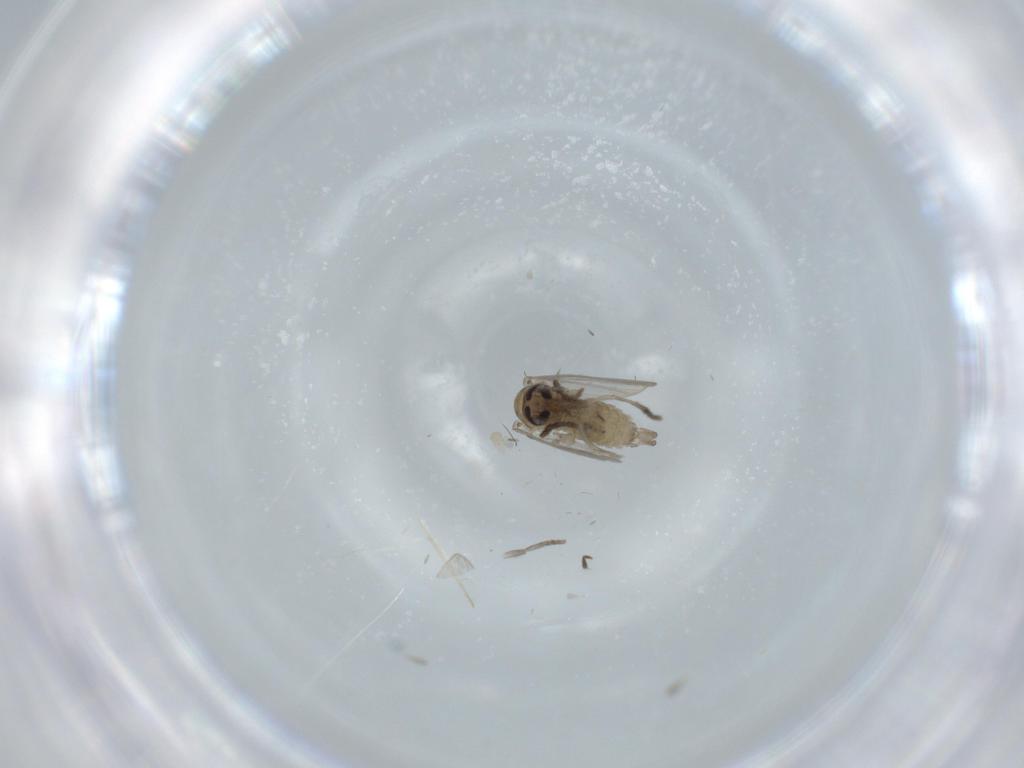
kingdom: Animalia
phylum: Arthropoda
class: Insecta
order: Diptera
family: Psychodidae
